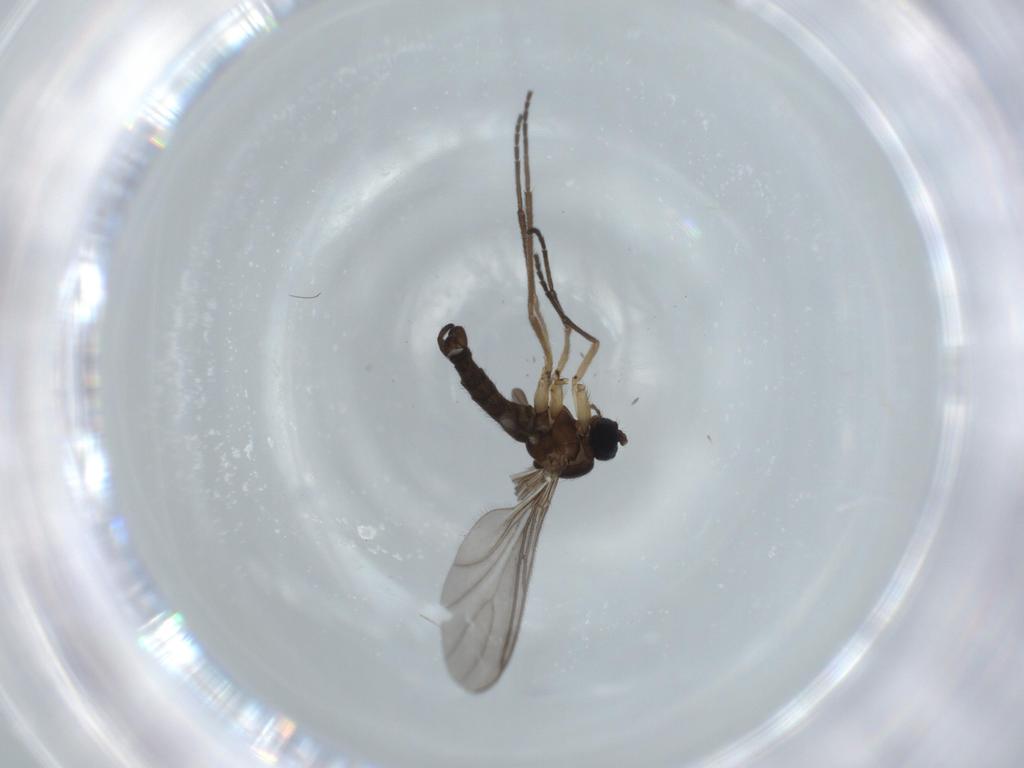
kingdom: Animalia
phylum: Arthropoda
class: Insecta
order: Diptera
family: Sciaridae
